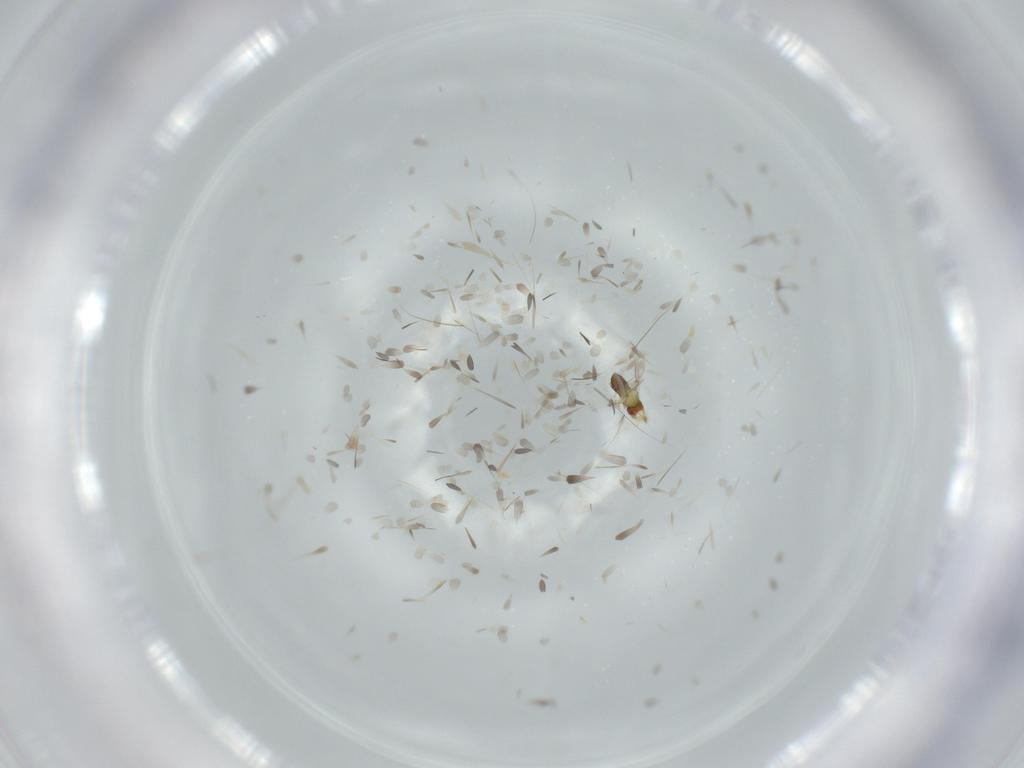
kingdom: Animalia
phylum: Arthropoda
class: Insecta
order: Hymenoptera
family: Trichogrammatidae
